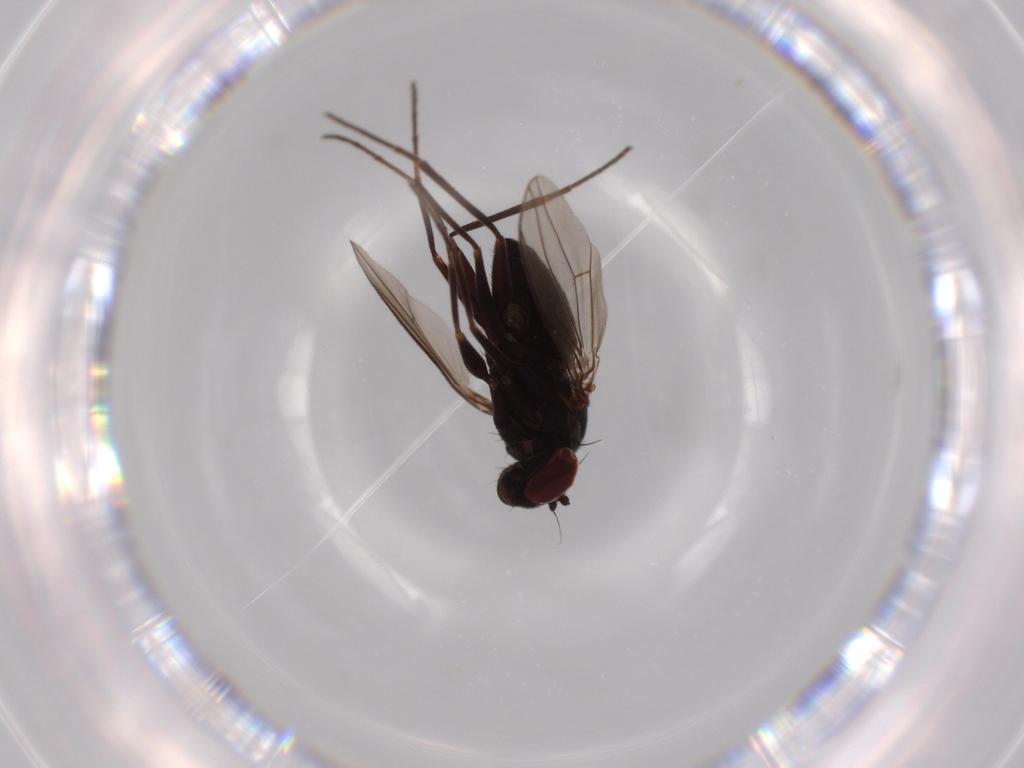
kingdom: Animalia
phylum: Arthropoda
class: Insecta
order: Diptera
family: Dolichopodidae
